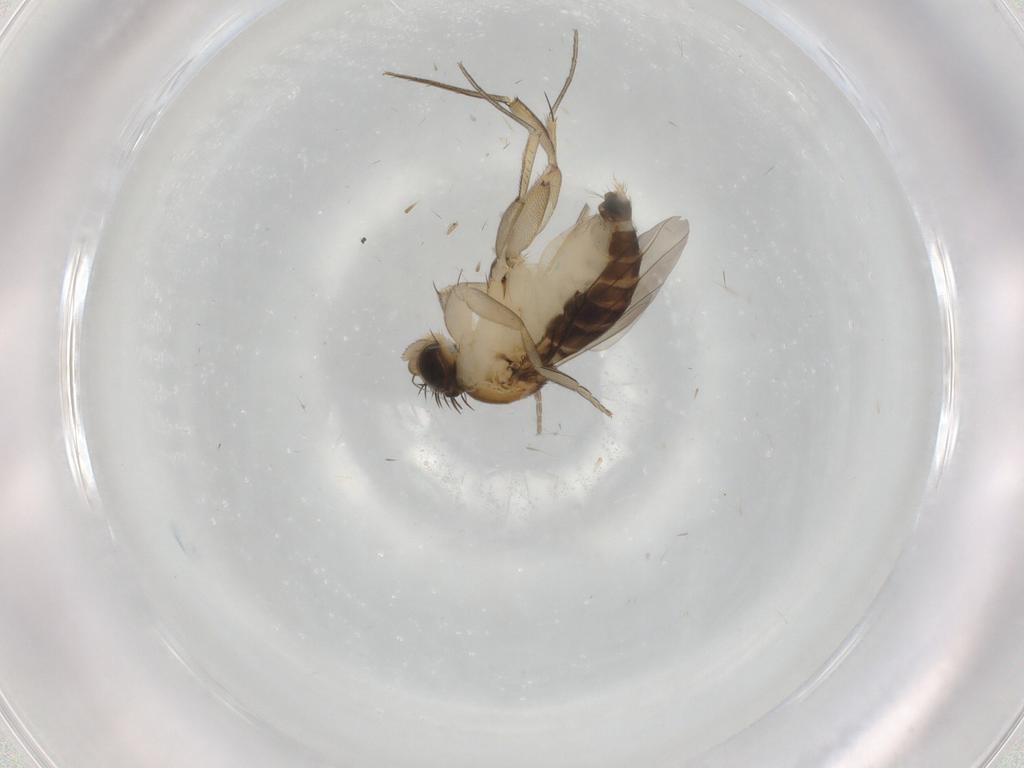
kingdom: Animalia
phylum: Arthropoda
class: Insecta
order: Diptera
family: Phoridae
